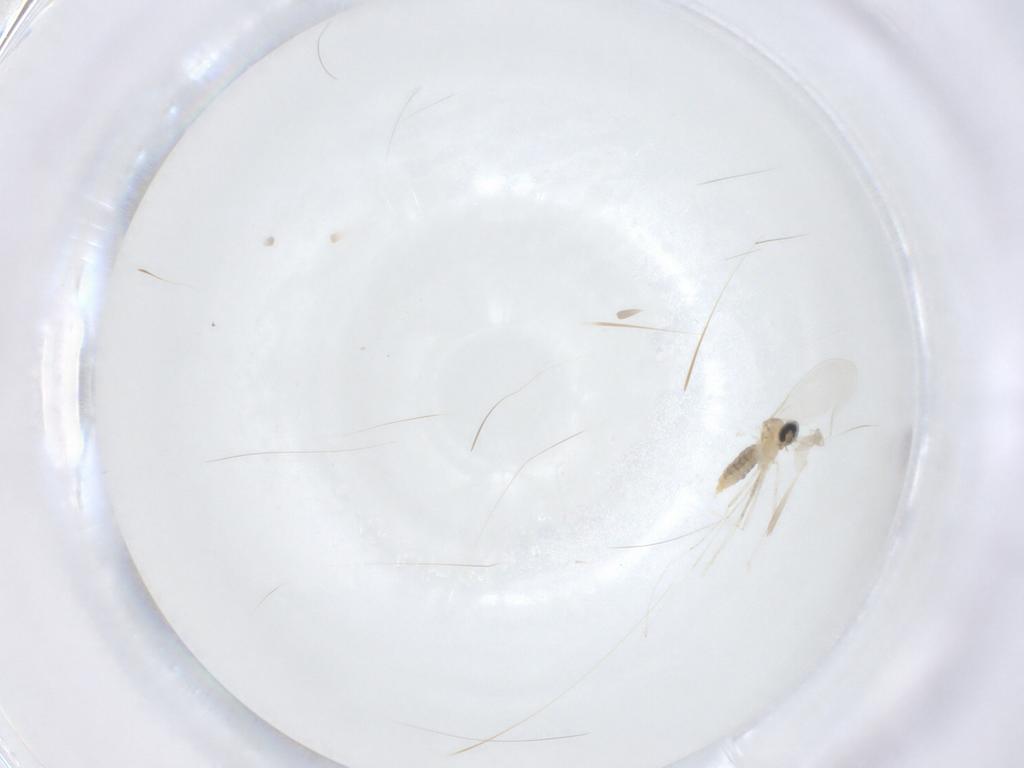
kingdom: Animalia
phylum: Arthropoda
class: Insecta
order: Diptera
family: Cecidomyiidae
